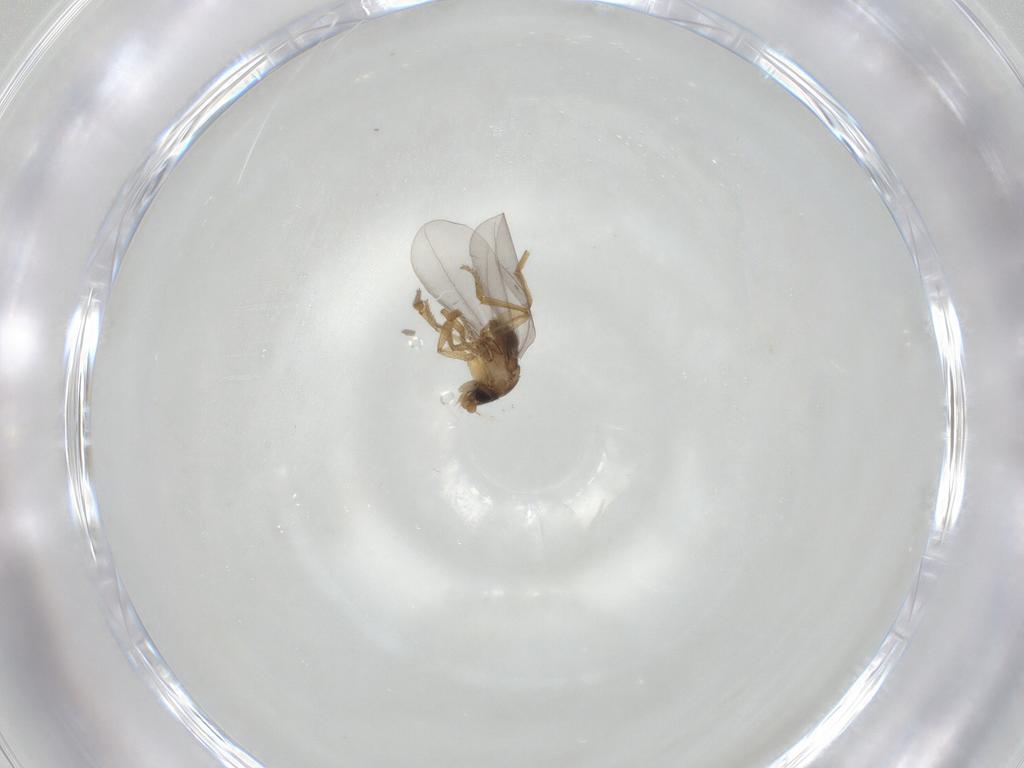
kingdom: Animalia
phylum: Arthropoda
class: Insecta
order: Diptera
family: Phoridae
